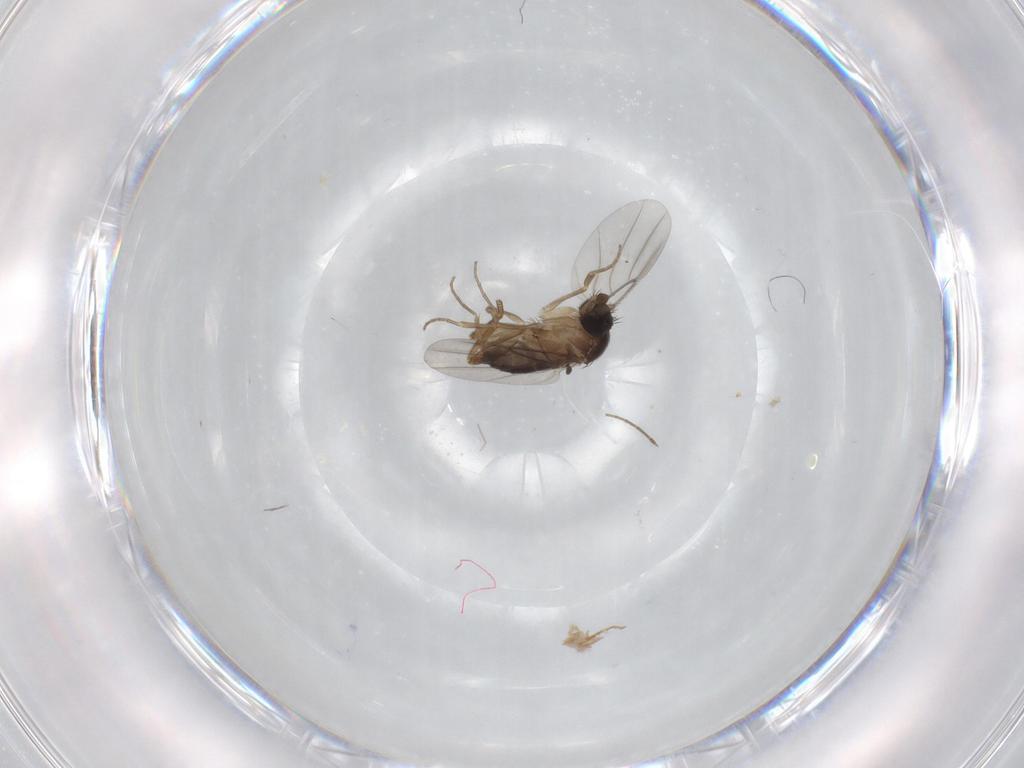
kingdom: Animalia
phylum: Arthropoda
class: Insecta
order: Diptera
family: Phoridae
